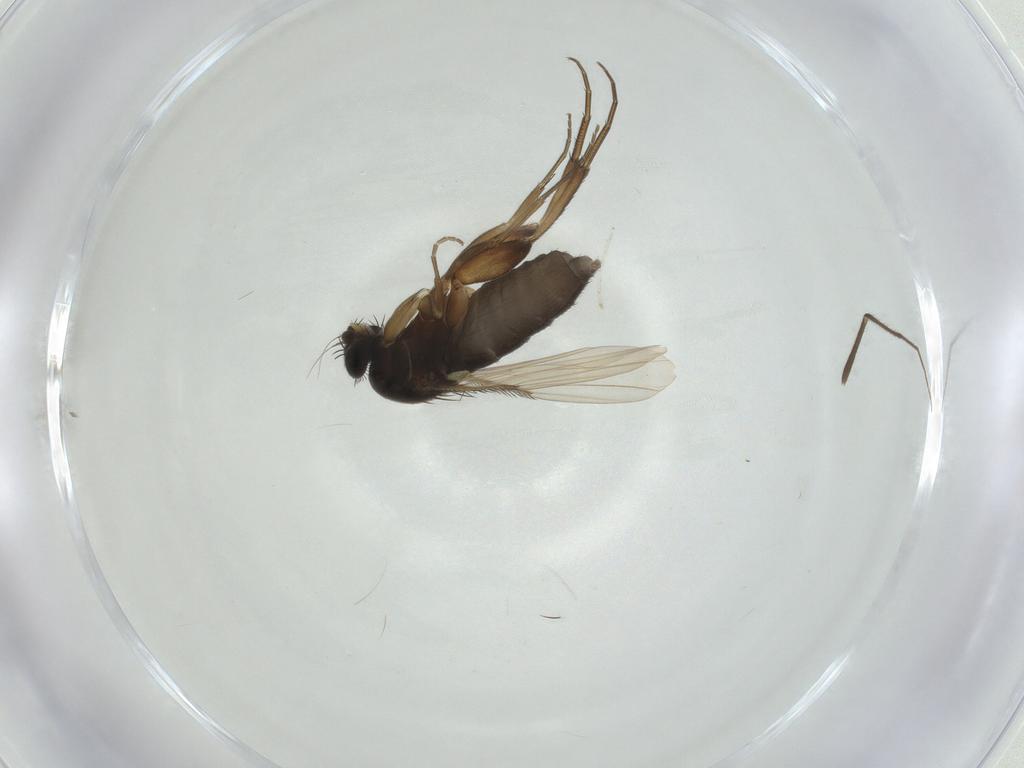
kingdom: Animalia
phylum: Arthropoda
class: Insecta
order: Diptera
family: Chironomidae
